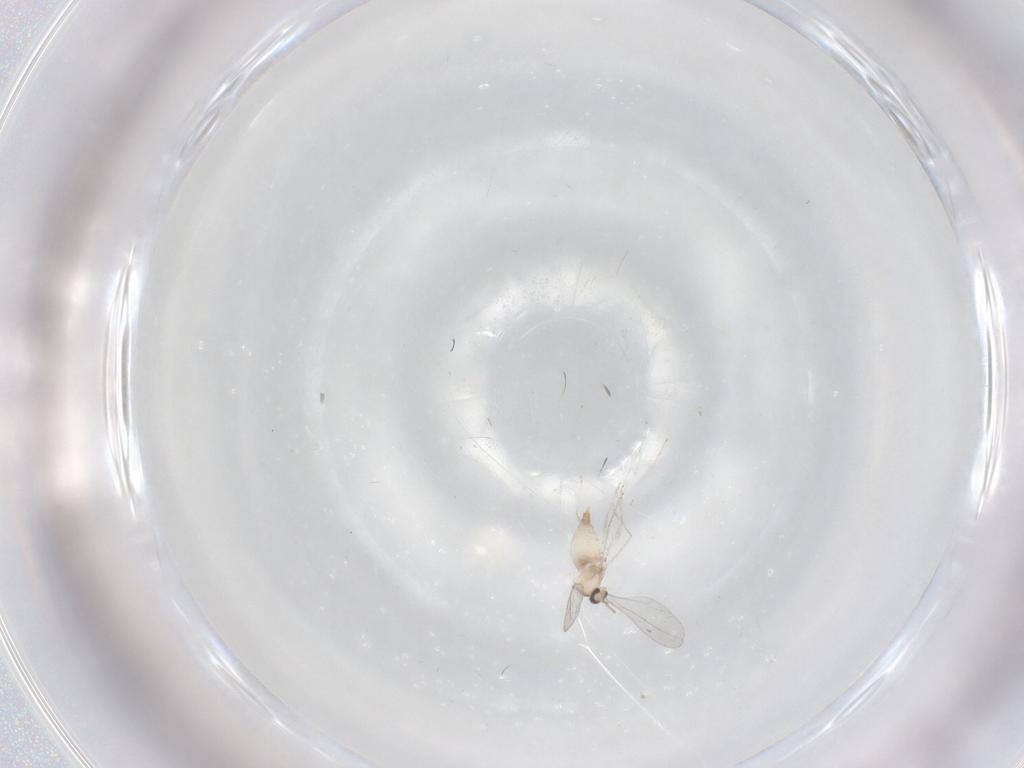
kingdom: Animalia
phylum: Arthropoda
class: Insecta
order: Diptera
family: Cecidomyiidae
